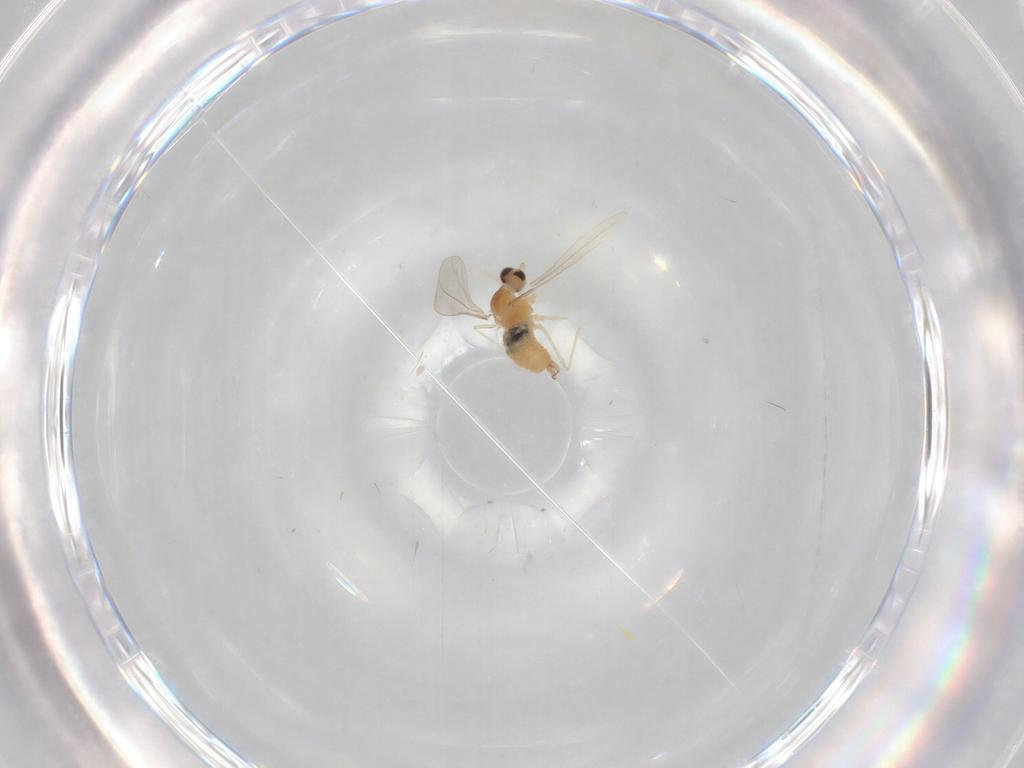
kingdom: Animalia
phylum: Arthropoda
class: Insecta
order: Diptera
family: Cecidomyiidae
